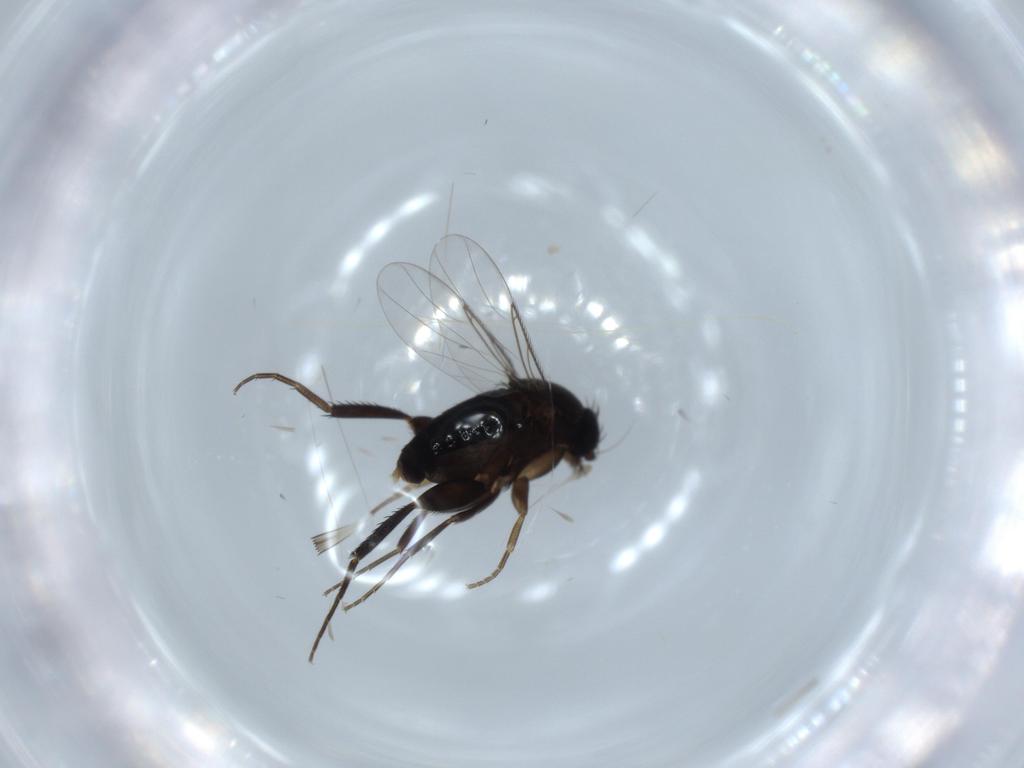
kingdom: Animalia
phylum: Arthropoda
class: Insecta
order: Diptera
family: Phoridae
